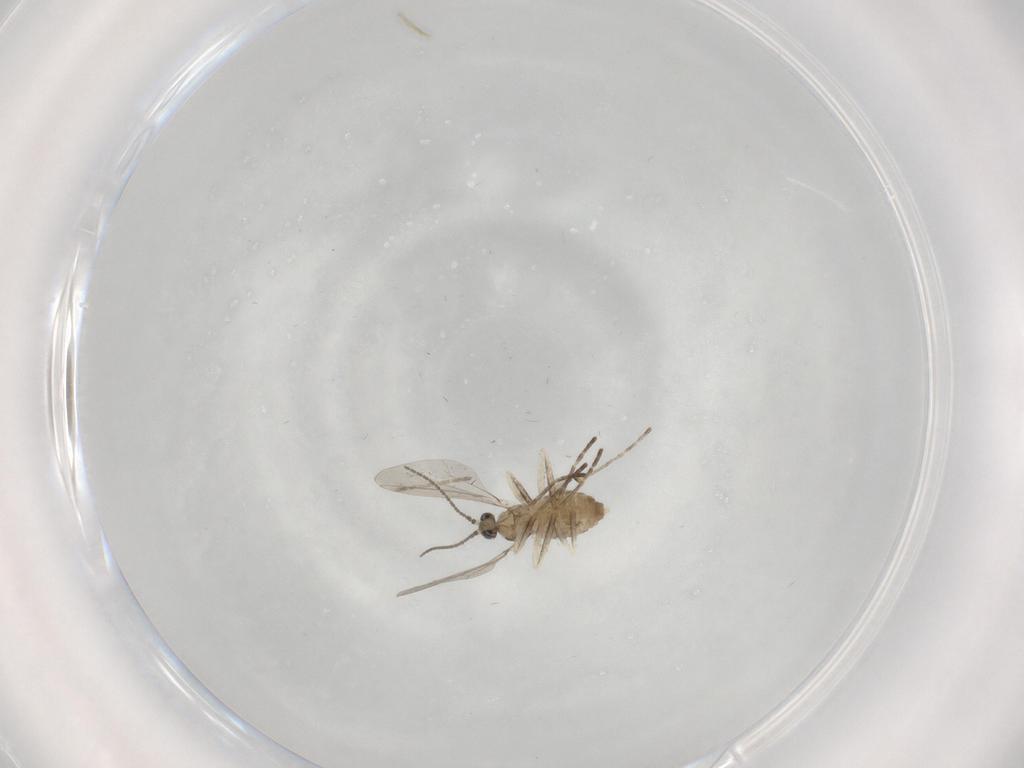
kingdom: Animalia
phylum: Arthropoda
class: Insecta
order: Diptera
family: Cecidomyiidae
